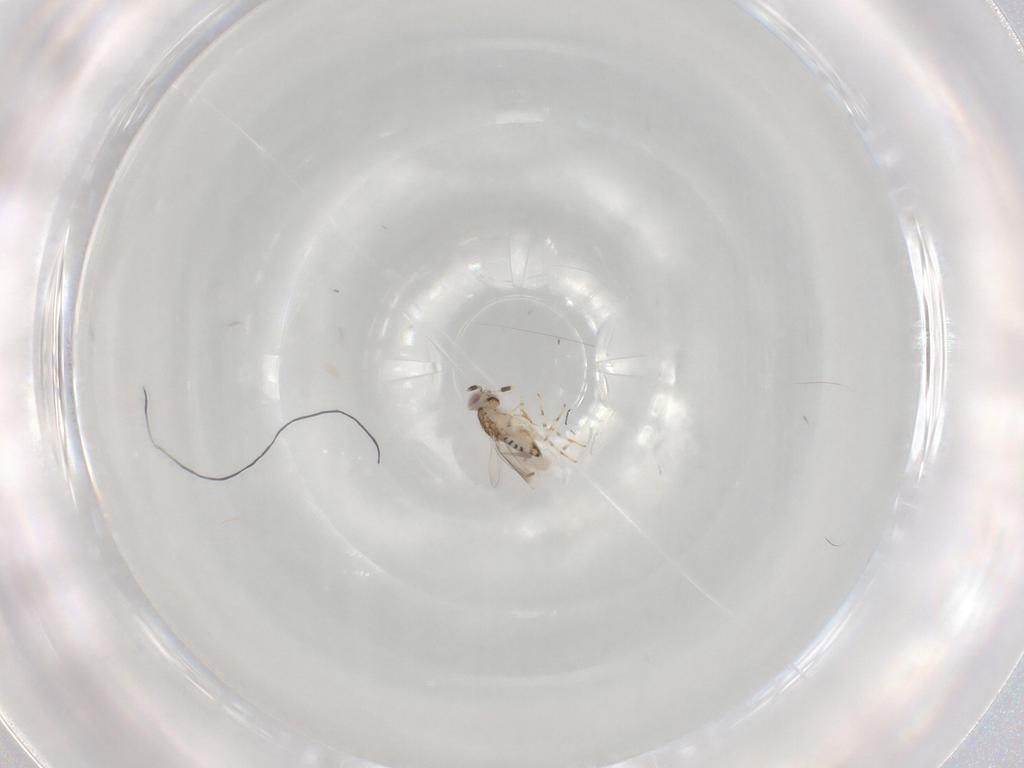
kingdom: Animalia
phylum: Arthropoda
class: Insecta
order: Hymenoptera
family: Aphelinidae
